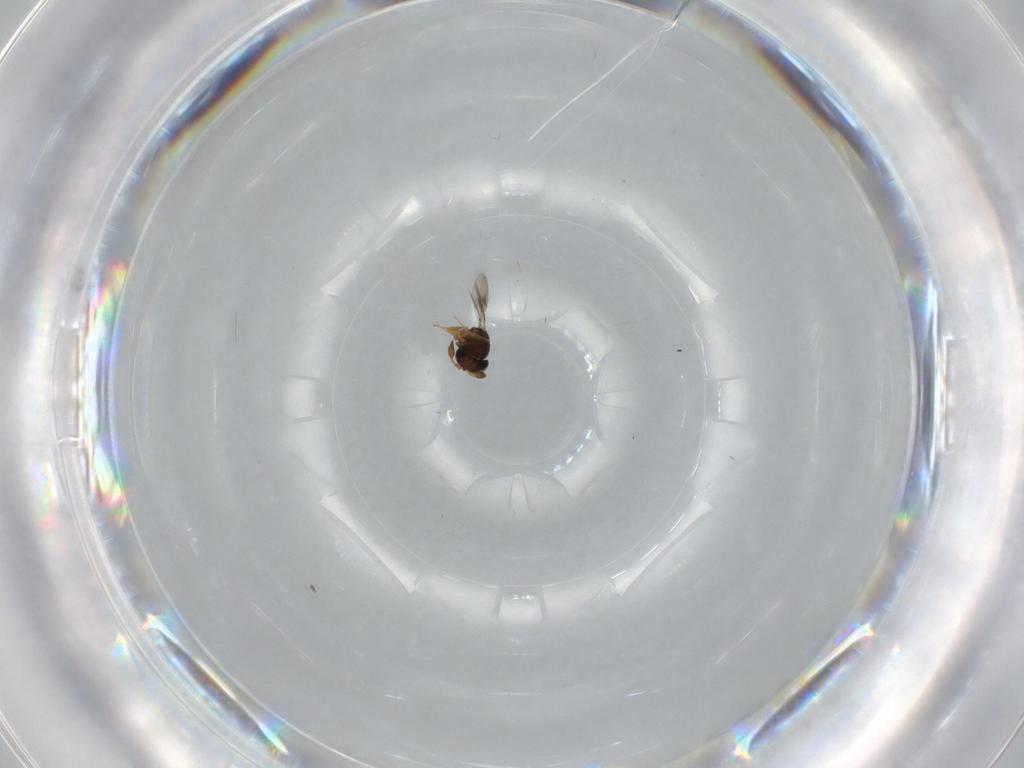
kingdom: Animalia
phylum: Arthropoda
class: Insecta
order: Hymenoptera
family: Scelionidae
